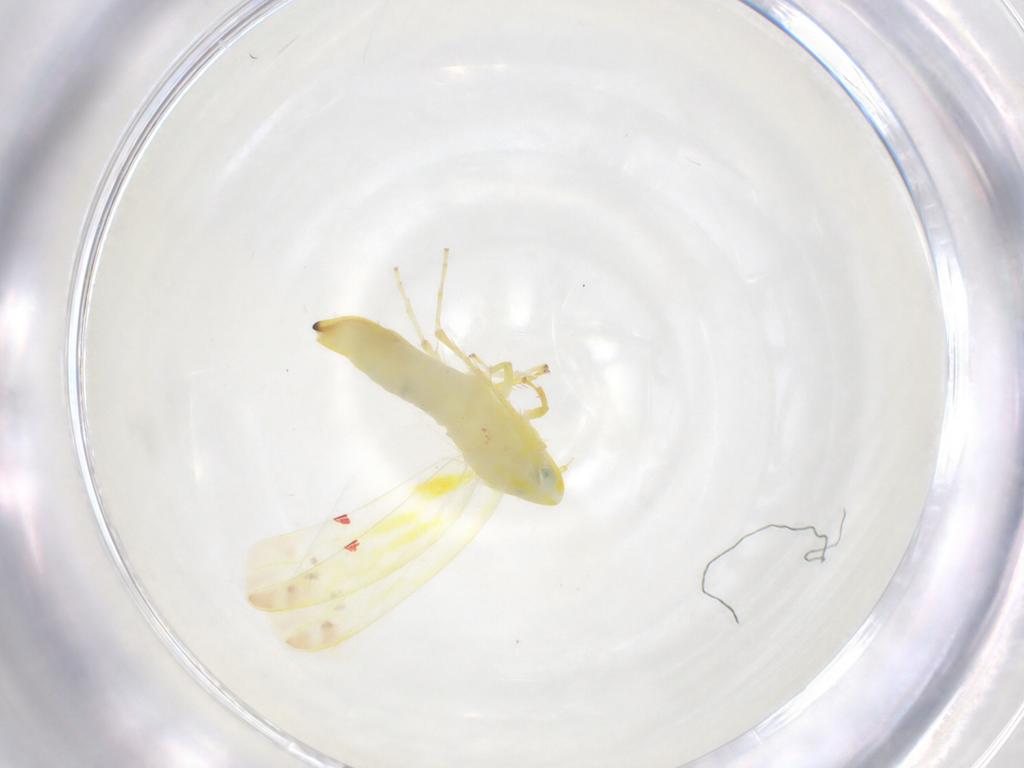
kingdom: Animalia
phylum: Arthropoda
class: Insecta
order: Hemiptera
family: Cicadellidae
